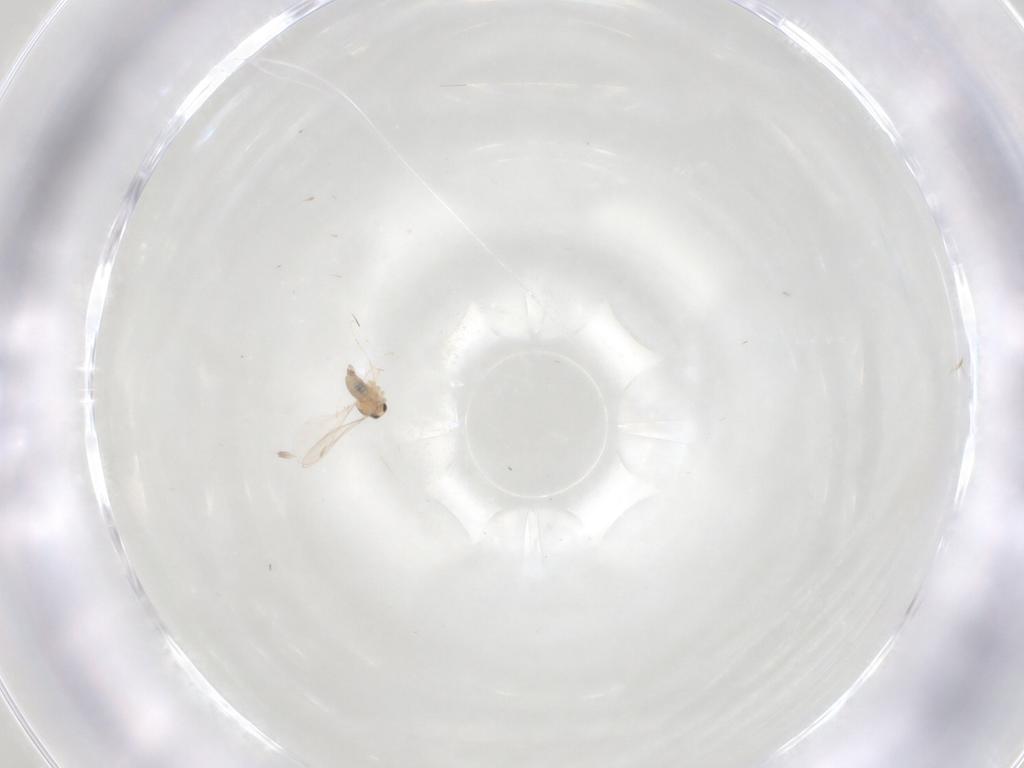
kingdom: Animalia
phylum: Arthropoda
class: Insecta
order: Diptera
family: Cecidomyiidae
